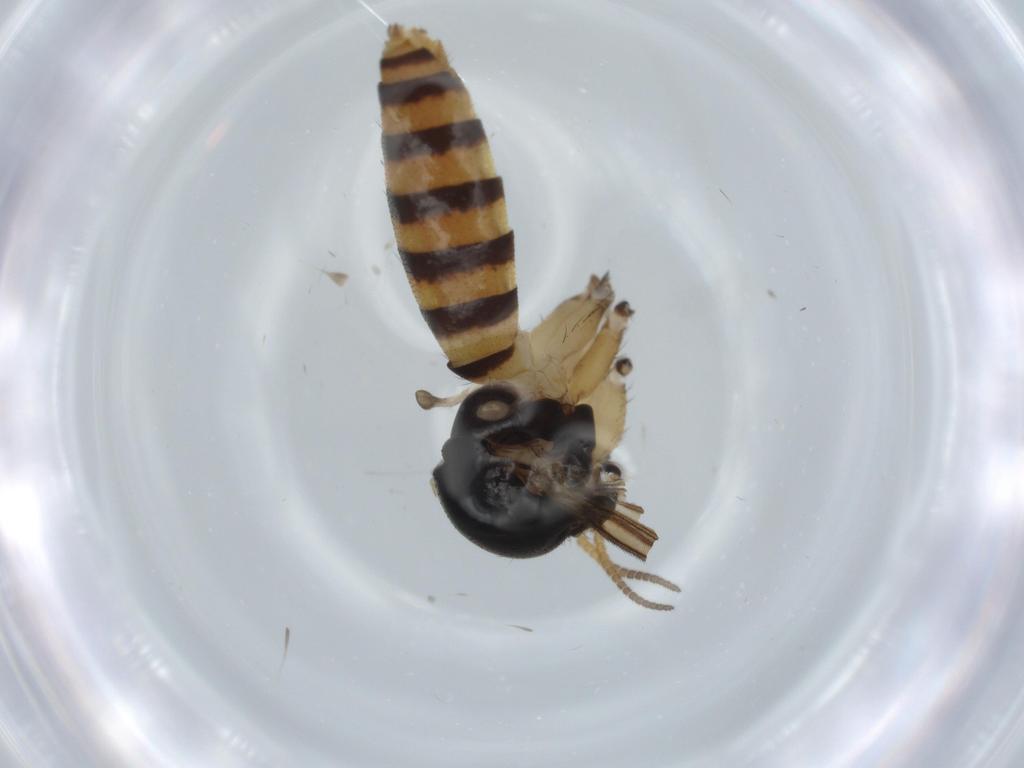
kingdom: Animalia
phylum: Arthropoda
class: Insecta
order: Diptera
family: Mycetophilidae
